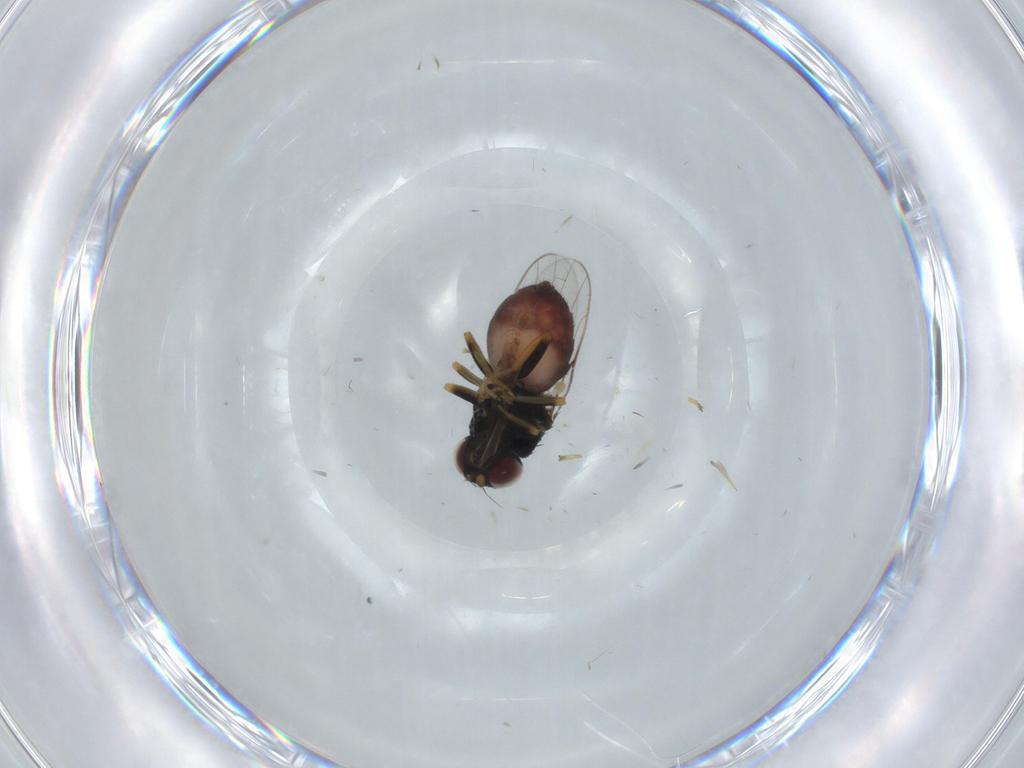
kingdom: Animalia
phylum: Arthropoda
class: Insecta
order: Diptera
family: Chloropidae
